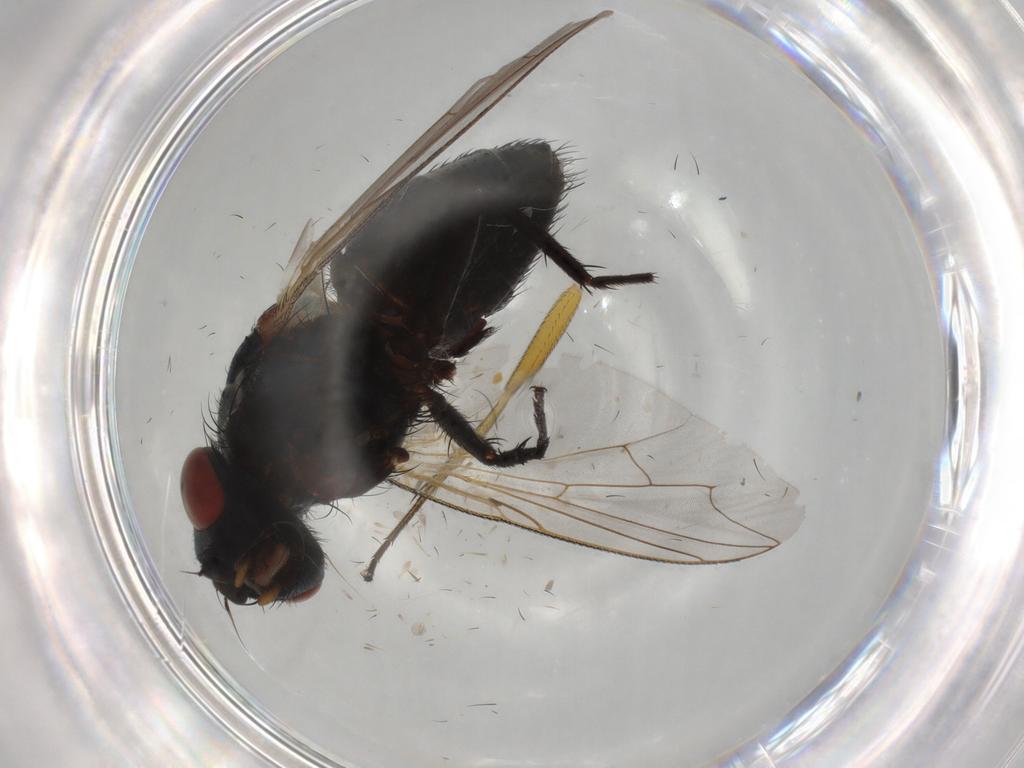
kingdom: Animalia
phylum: Arthropoda
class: Insecta
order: Diptera
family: Sarcophagidae
